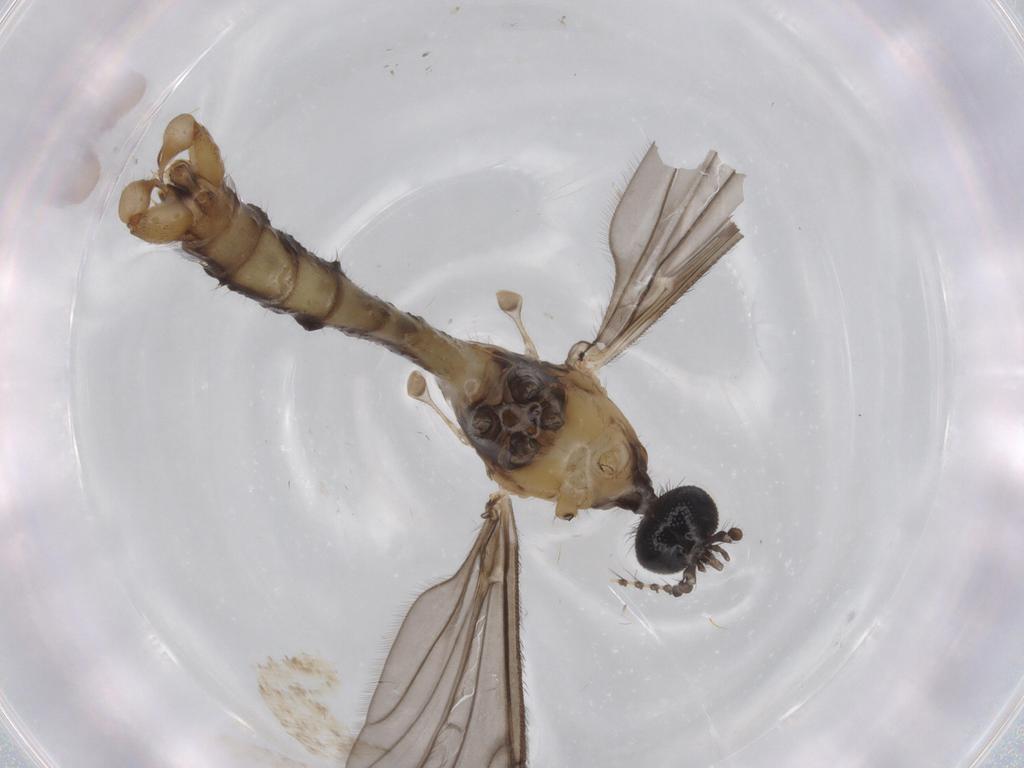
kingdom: Animalia
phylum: Arthropoda
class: Insecta
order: Diptera
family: Heleomyzidae
